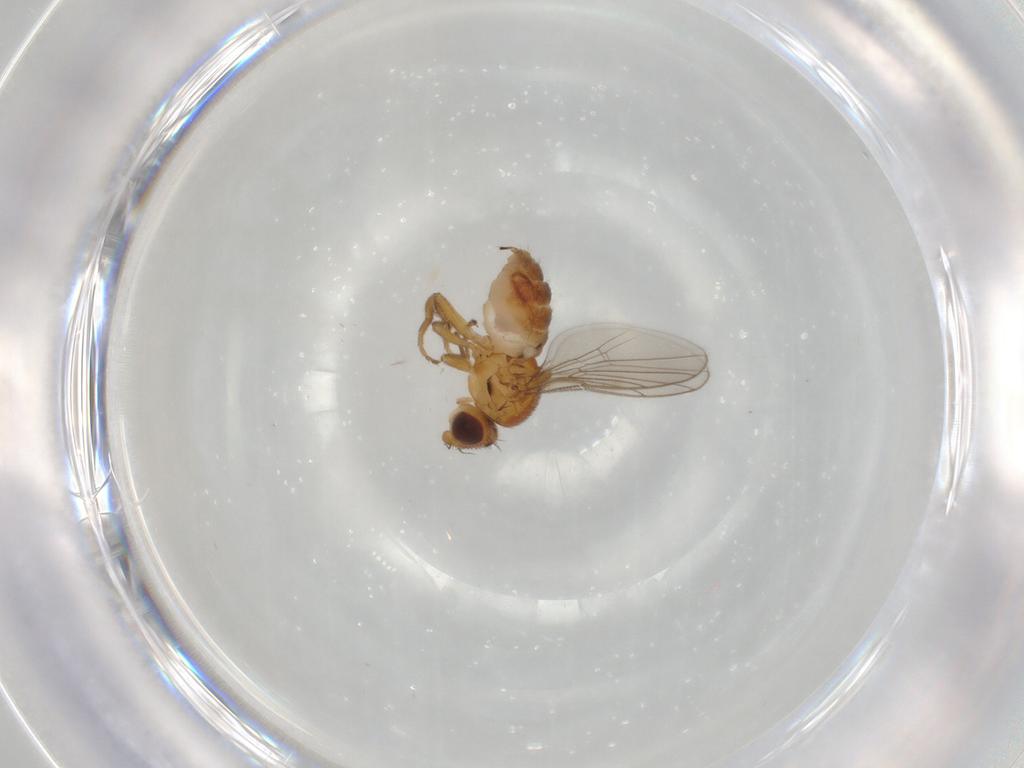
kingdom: Animalia
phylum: Arthropoda
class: Insecta
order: Diptera
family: Chloropidae
